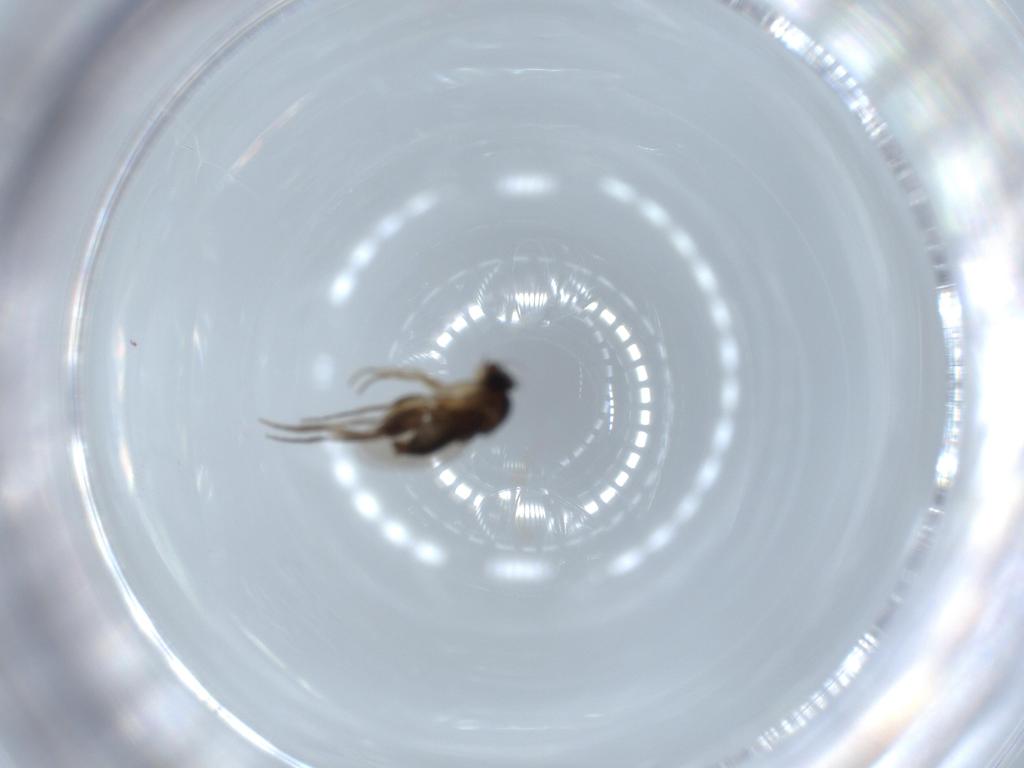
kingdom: Animalia
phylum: Arthropoda
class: Insecta
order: Diptera
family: Phoridae
